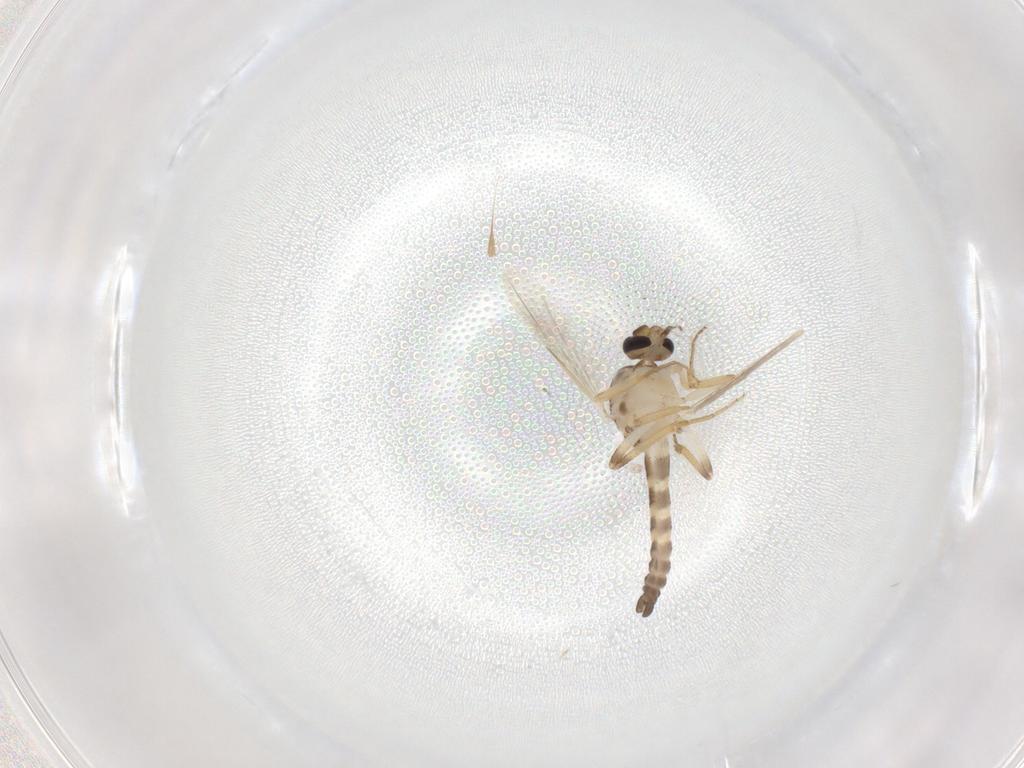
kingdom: Animalia
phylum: Arthropoda
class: Insecta
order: Diptera
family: Ceratopogonidae
